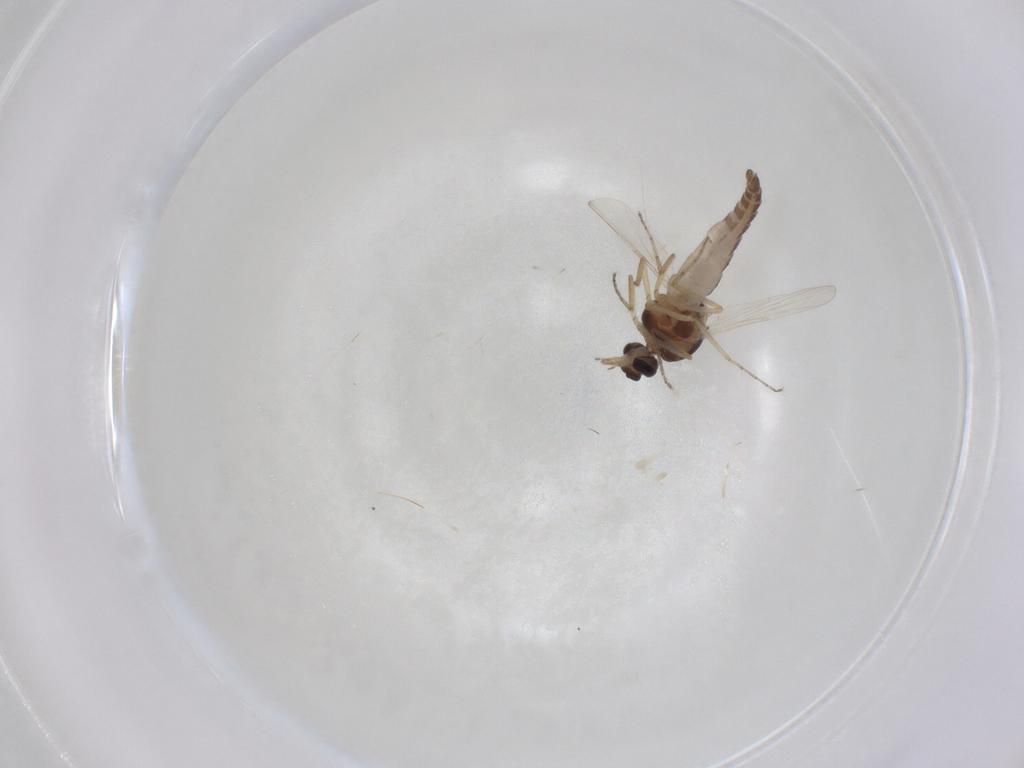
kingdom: Animalia
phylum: Arthropoda
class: Insecta
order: Diptera
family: Ceratopogonidae
